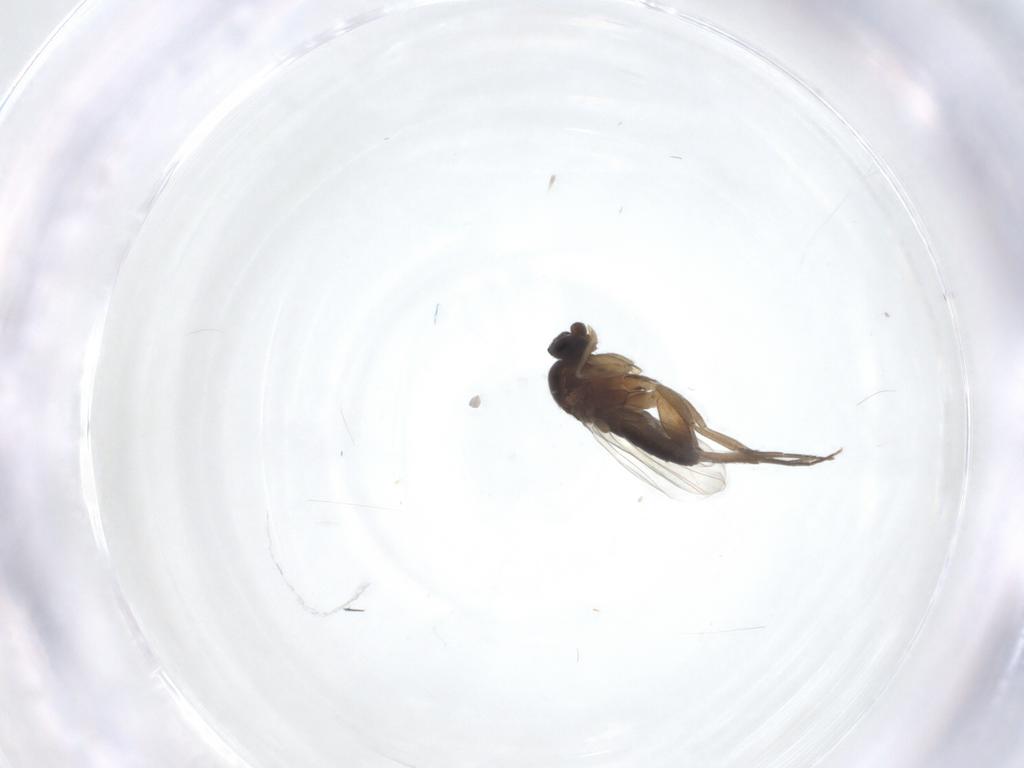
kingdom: Animalia
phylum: Arthropoda
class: Insecta
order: Diptera
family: Phoridae
